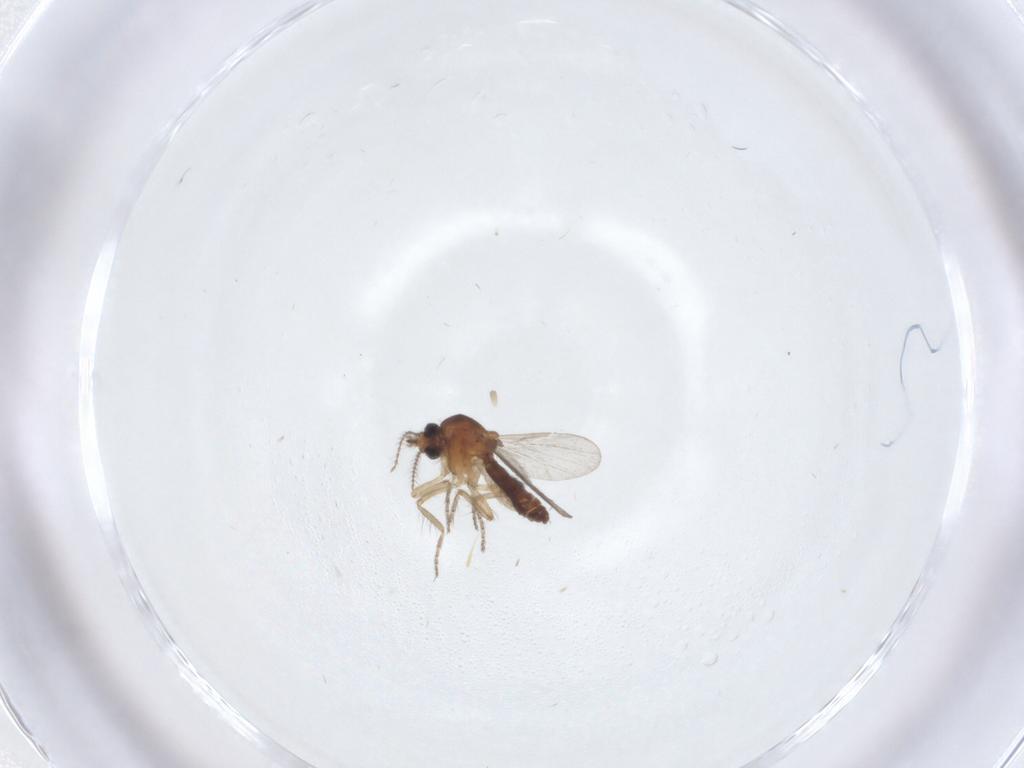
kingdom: Animalia
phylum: Arthropoda
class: Insecta
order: Diptera
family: Ceratopogonidae
